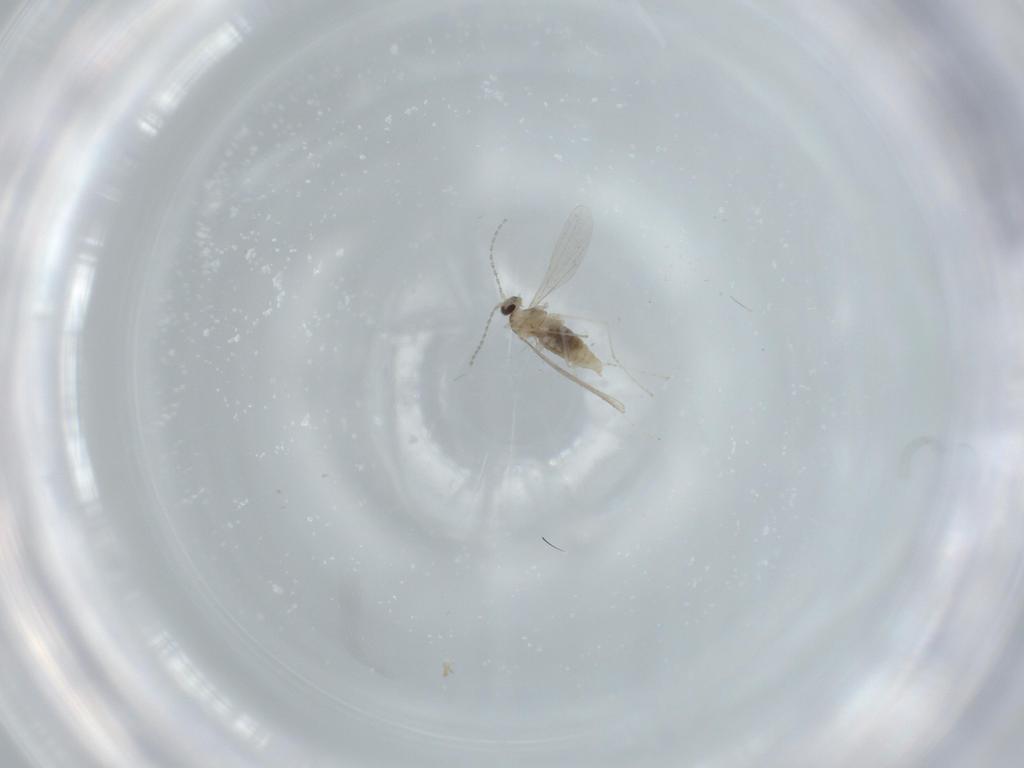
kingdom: Animalia
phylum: Arthropoda
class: Insecta
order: Diptera
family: Cecidomyiidae
